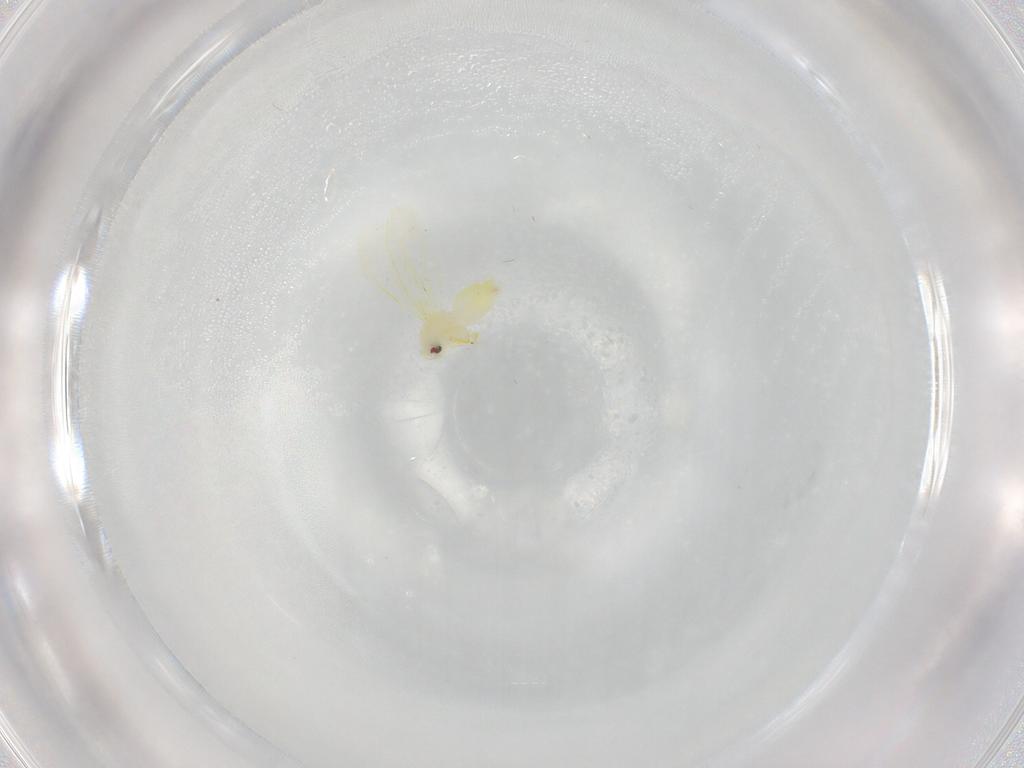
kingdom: Animalia
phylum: Arthropoda
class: Insecta
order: Hemiptera
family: Aleyrodidae
